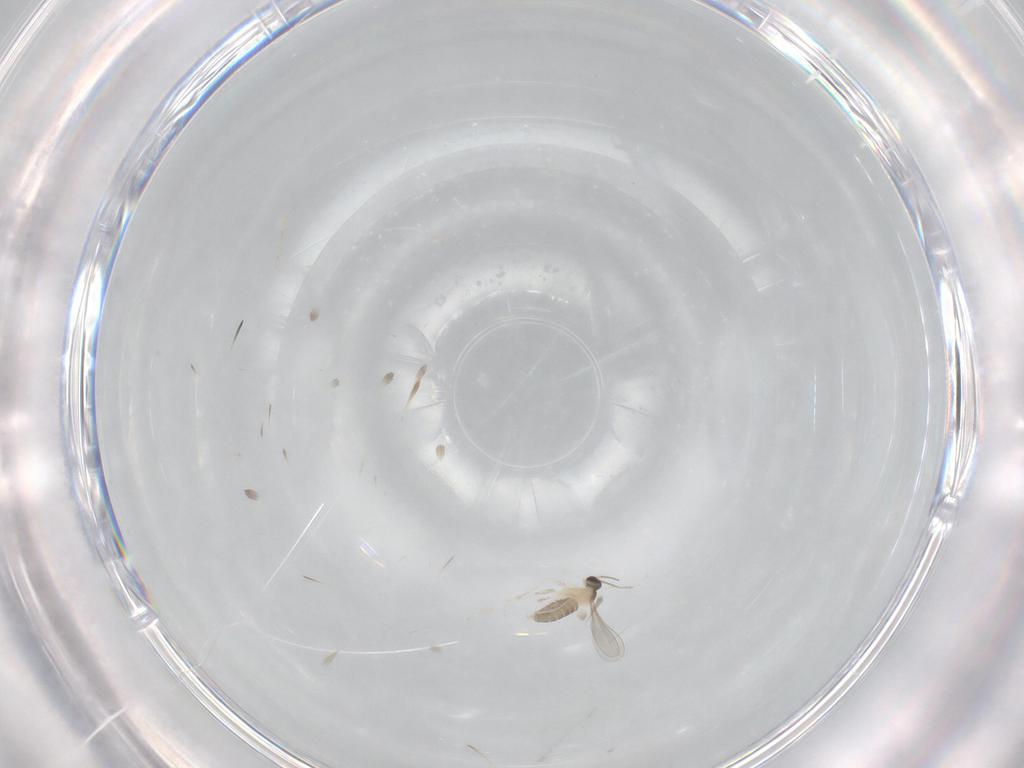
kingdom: Animalia
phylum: Arthropoda
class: Insecta
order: Diptera
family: Cecidomyiidae
